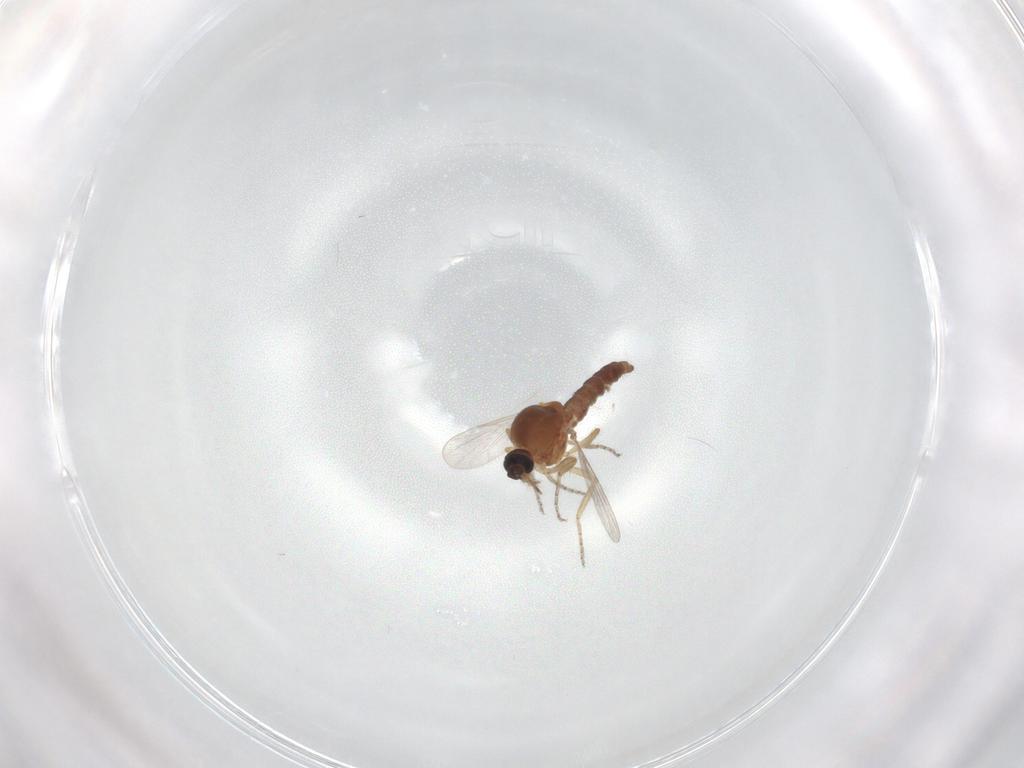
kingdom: Animalia
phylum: Arthropoda
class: Insecta
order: Diptera
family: Ceratopogonidae
